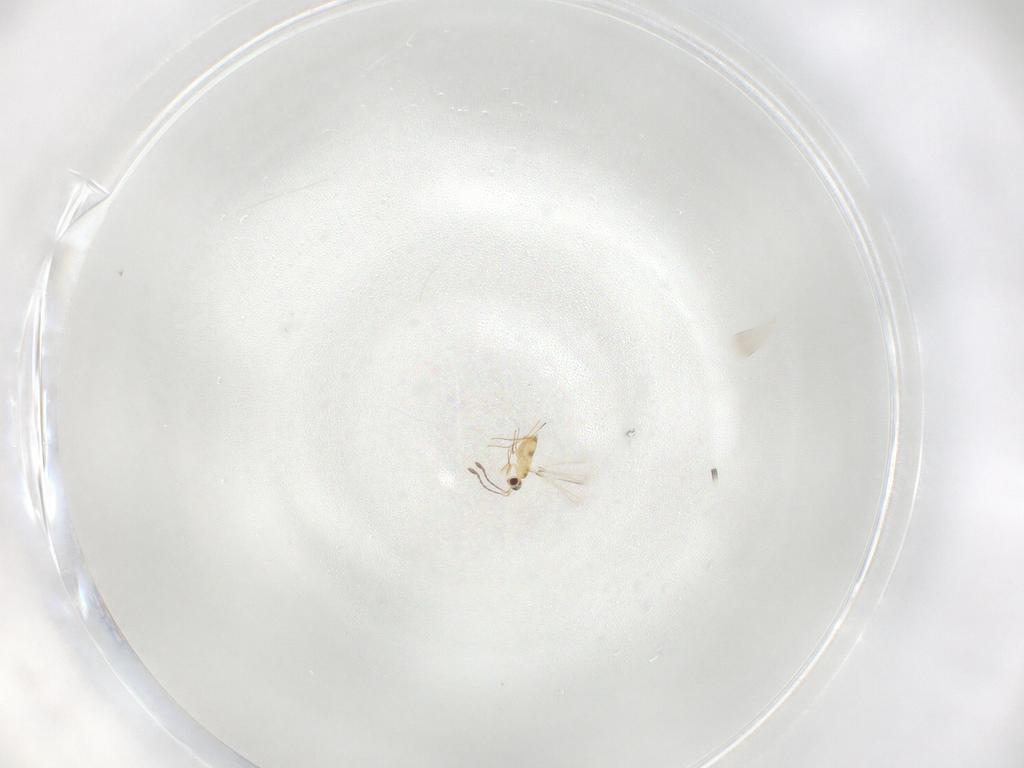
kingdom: Animalia
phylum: Arthropoda
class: Insecta
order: Hymenoptera
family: Mymaridae
